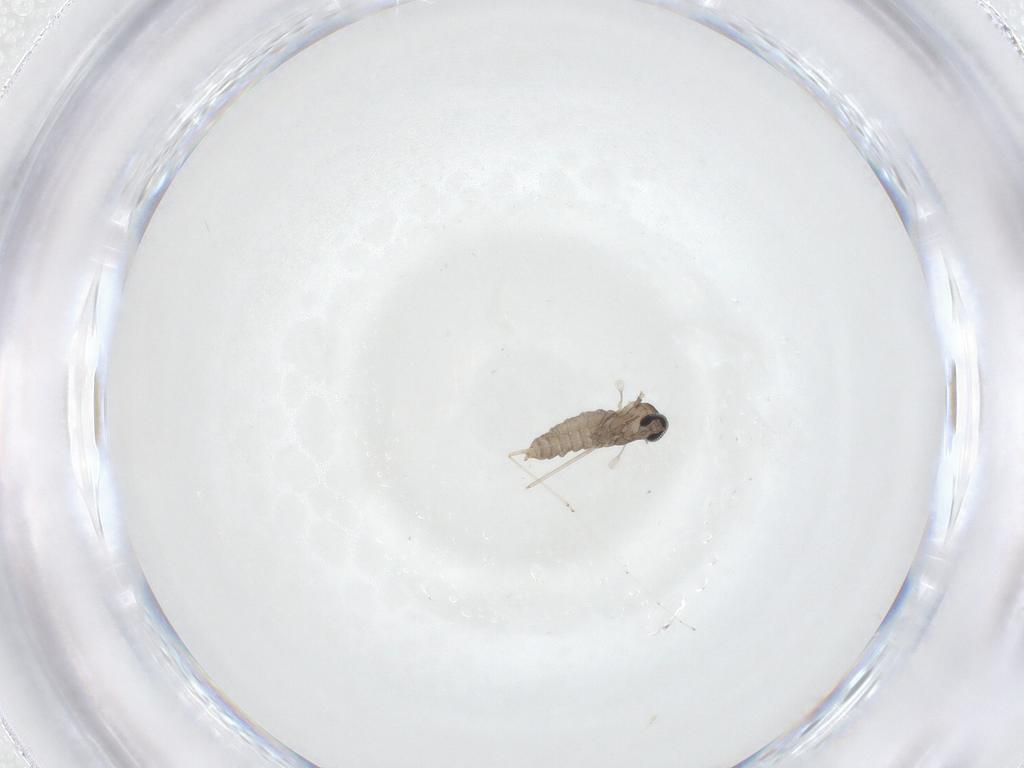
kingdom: Animalia
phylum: Arthropoda
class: Insecta
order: Diptera
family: Cecidomyiidae
